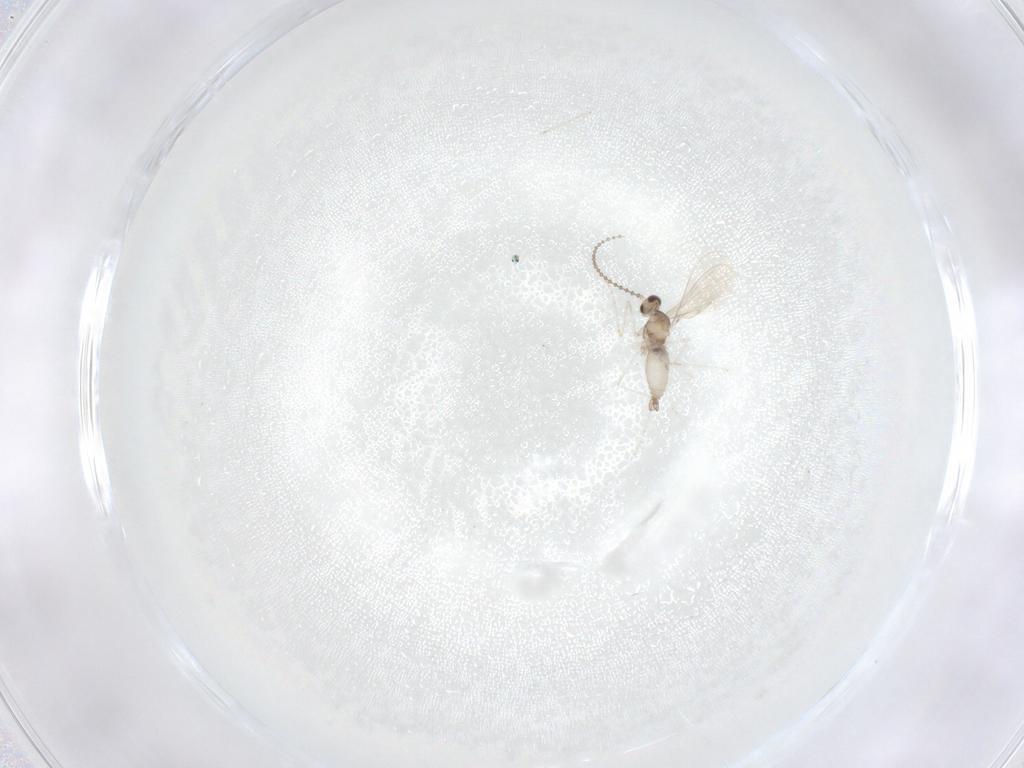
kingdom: Animalia
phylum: Arthropoda
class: Insecta
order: Diptera
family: Cecidomyiidae
